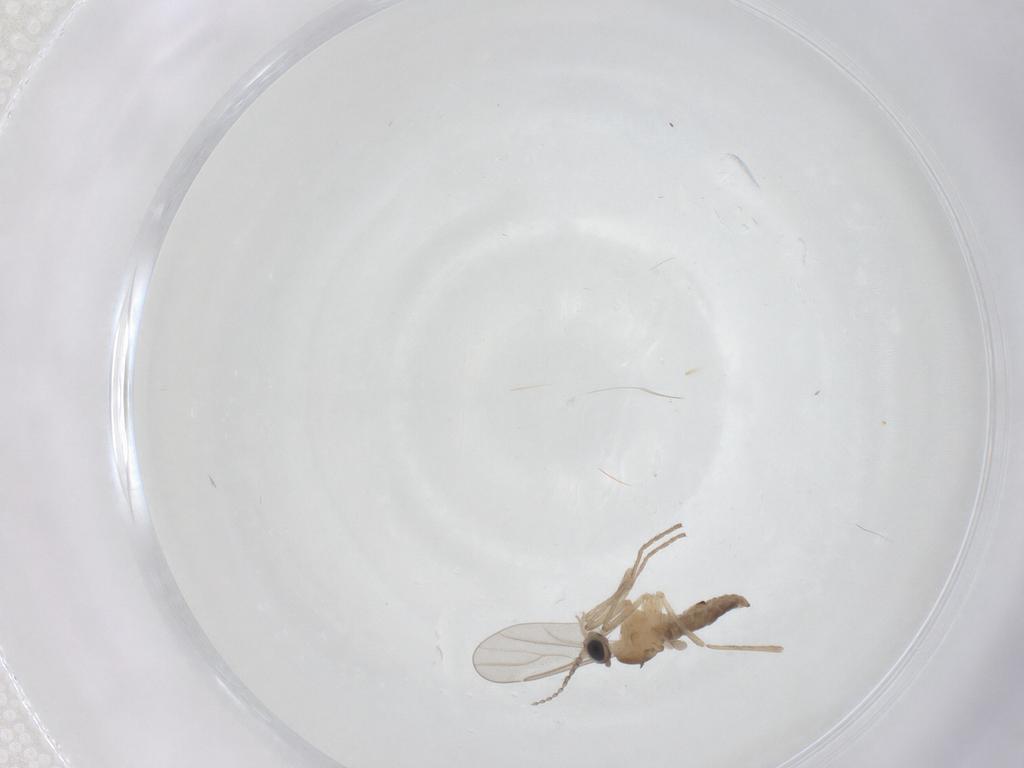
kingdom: Animalia
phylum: Arthropoda
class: Insecta
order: Diptera
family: Cecidomyiidae
